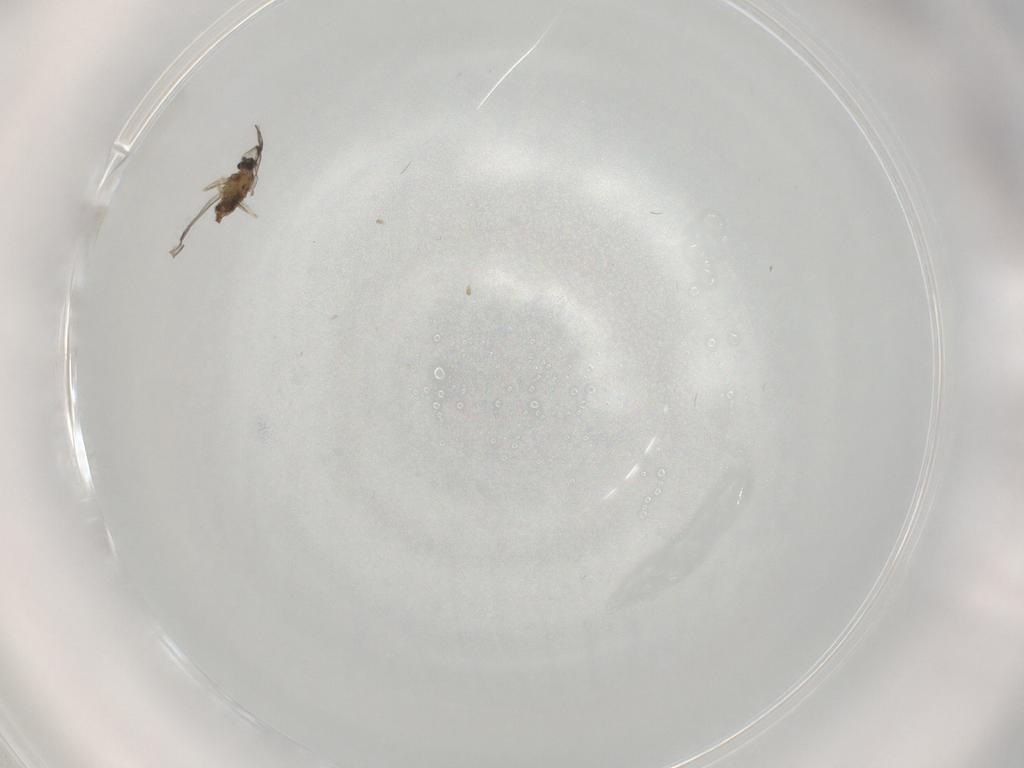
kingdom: Animalia
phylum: Arthropoda
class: Insecta
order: Diptera
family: Cecidomyiidae
